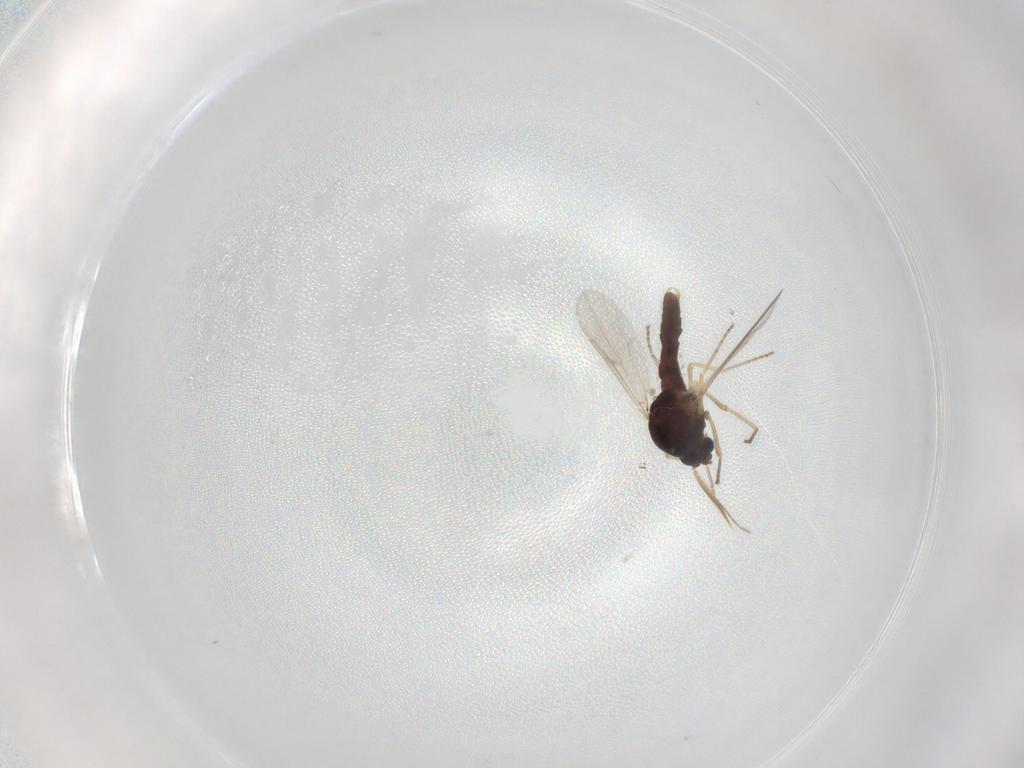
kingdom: Animalia
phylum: Arthropoda
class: Insecta
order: Diptera
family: Ceratopogonidae
